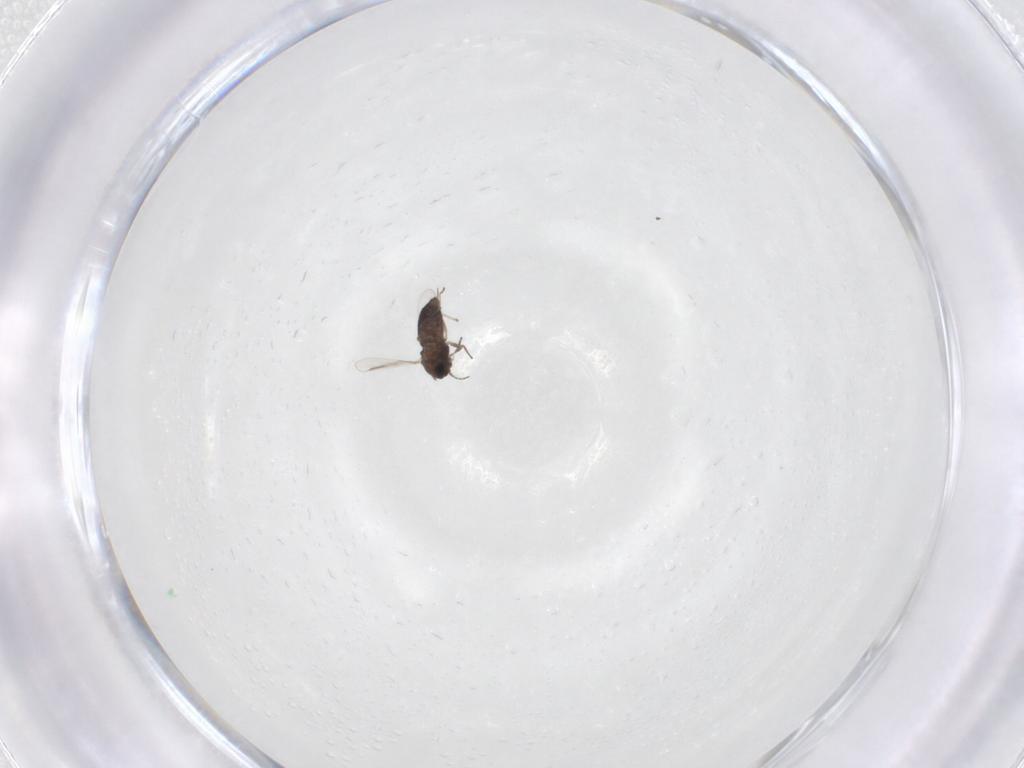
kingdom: Animalia
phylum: Arthropoda
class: Insecta
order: Diptera
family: Chironomidae
